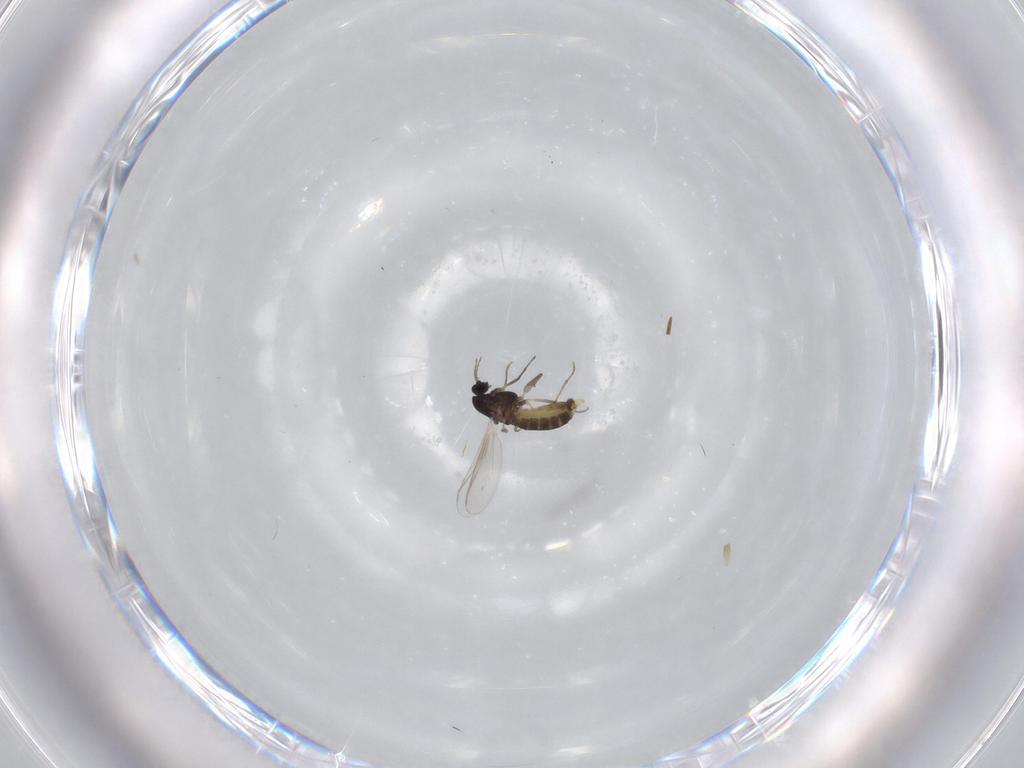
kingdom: Animalia
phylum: Arthropoda
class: Insecta
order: Diptera
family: Chironomidae
